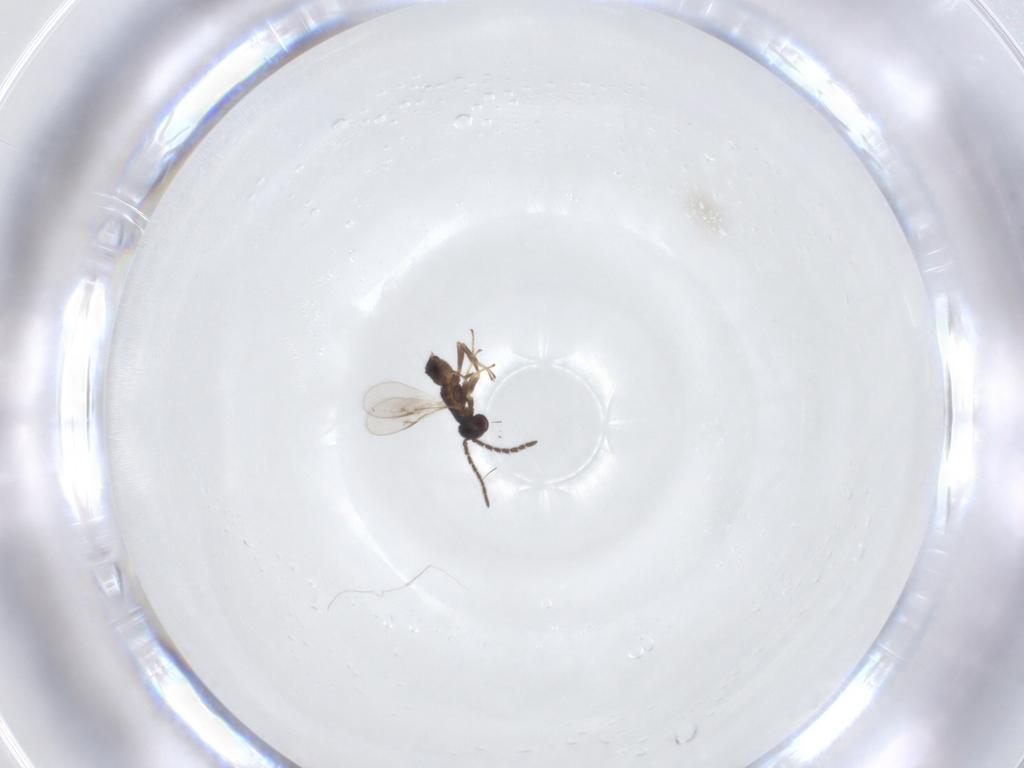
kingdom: Animalia
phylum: Arthropoda
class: Insecta
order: Hymenoptera
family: Encyrtidae
